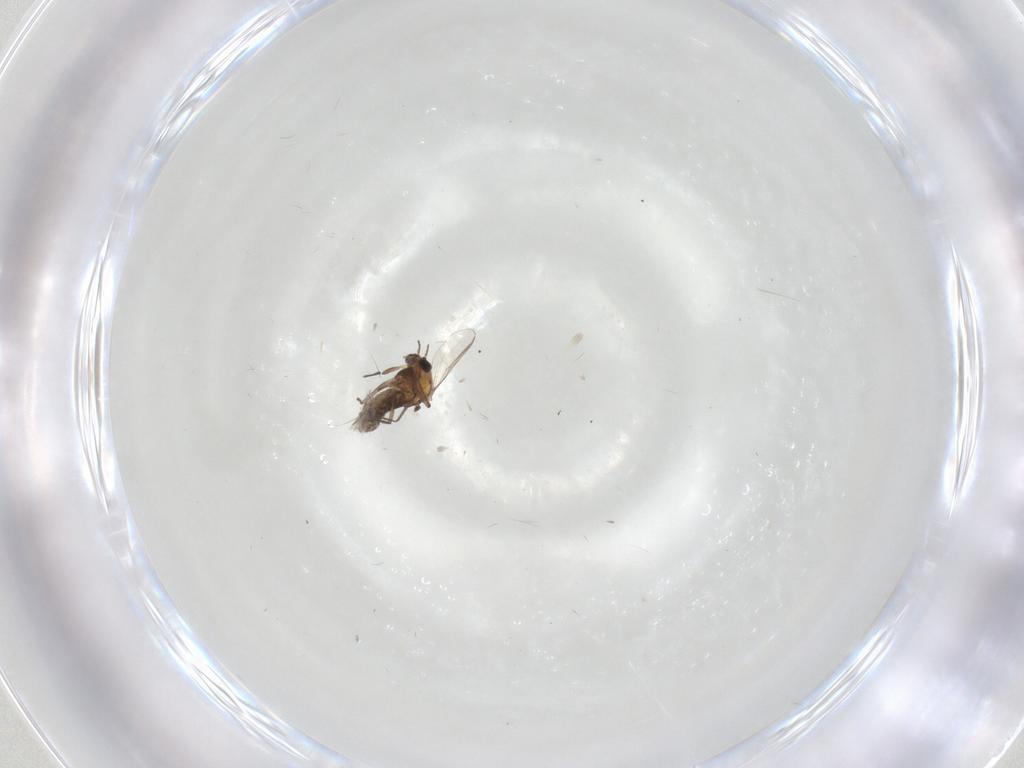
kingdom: Animalia
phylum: Arthropoda
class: Insecta
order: Diptera
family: Chironomidae
